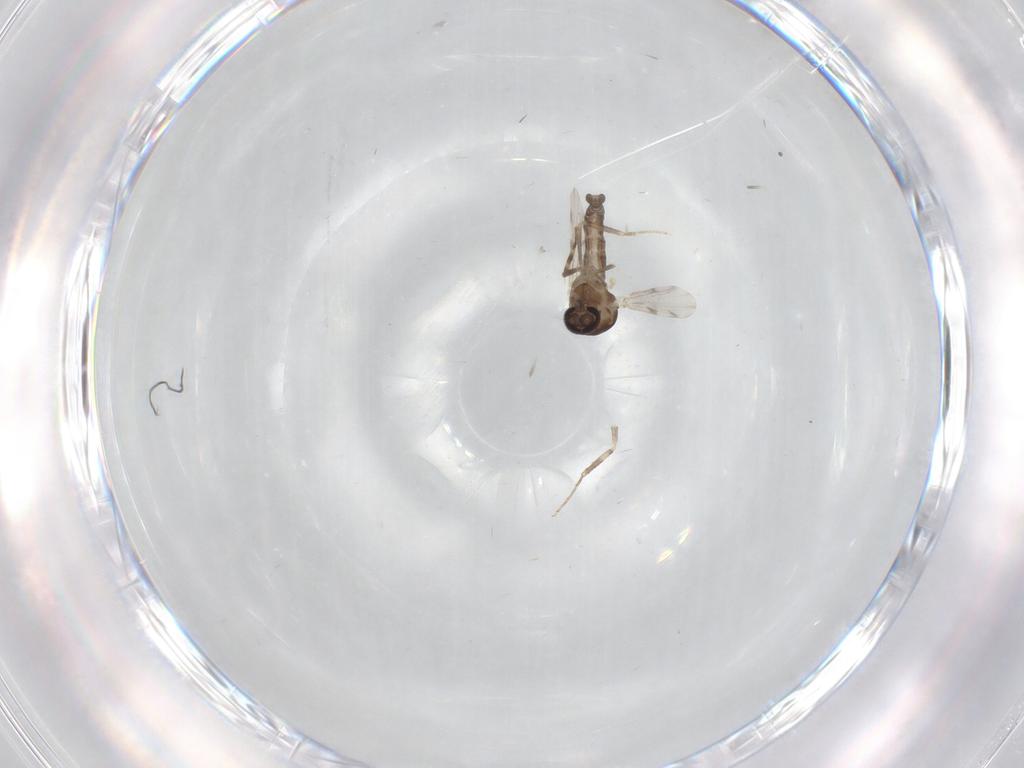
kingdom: Animalia
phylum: Arthropoda
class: Insecta
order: Diptera
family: Ceratopogonidae
